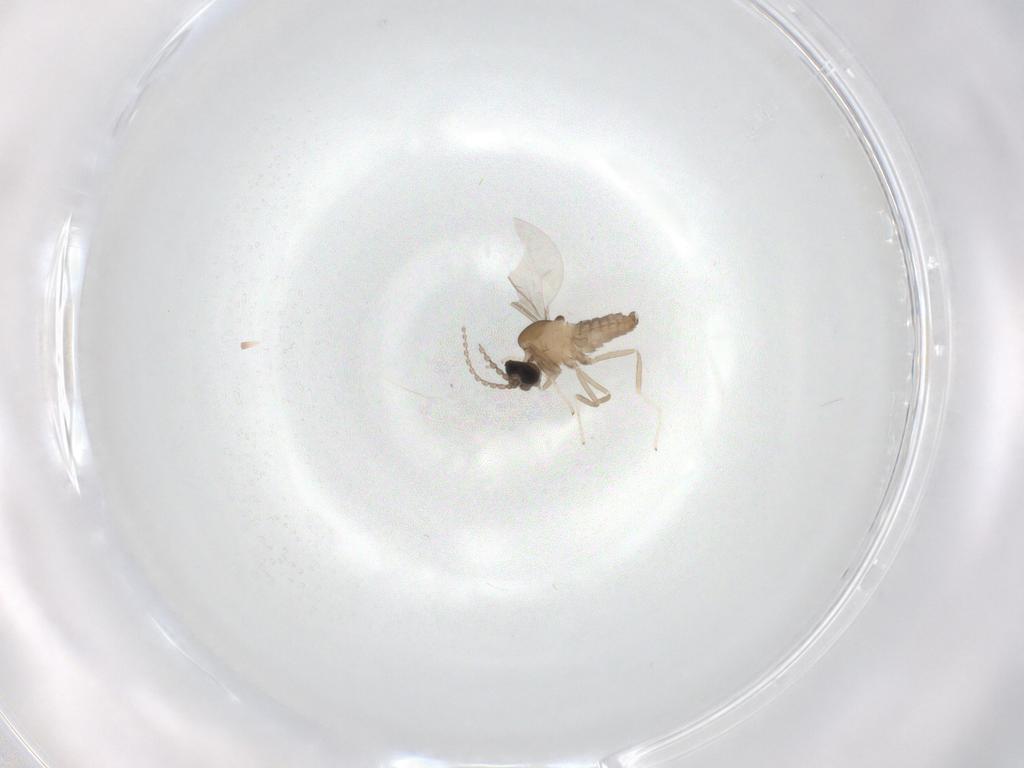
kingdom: Animalia
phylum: Arthropoda
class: Insecta
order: Diptera
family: Cecidomyiidae
